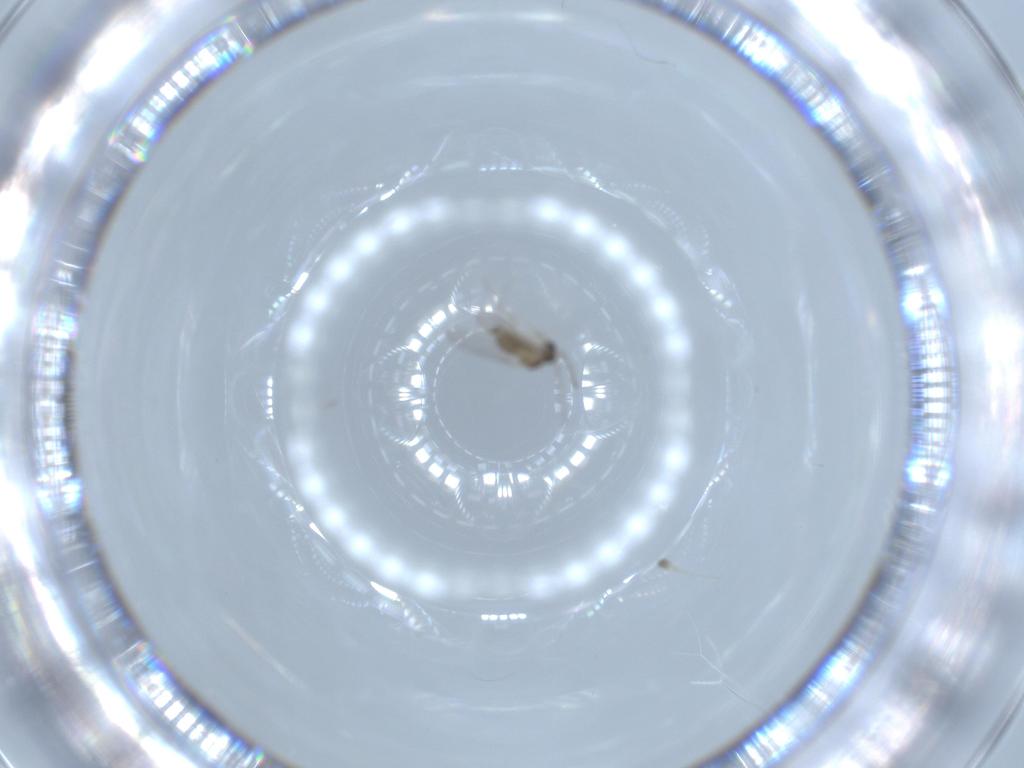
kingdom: Animalia
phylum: Arthropoda
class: Insecta
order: Diptera
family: Cecidomyiidae
